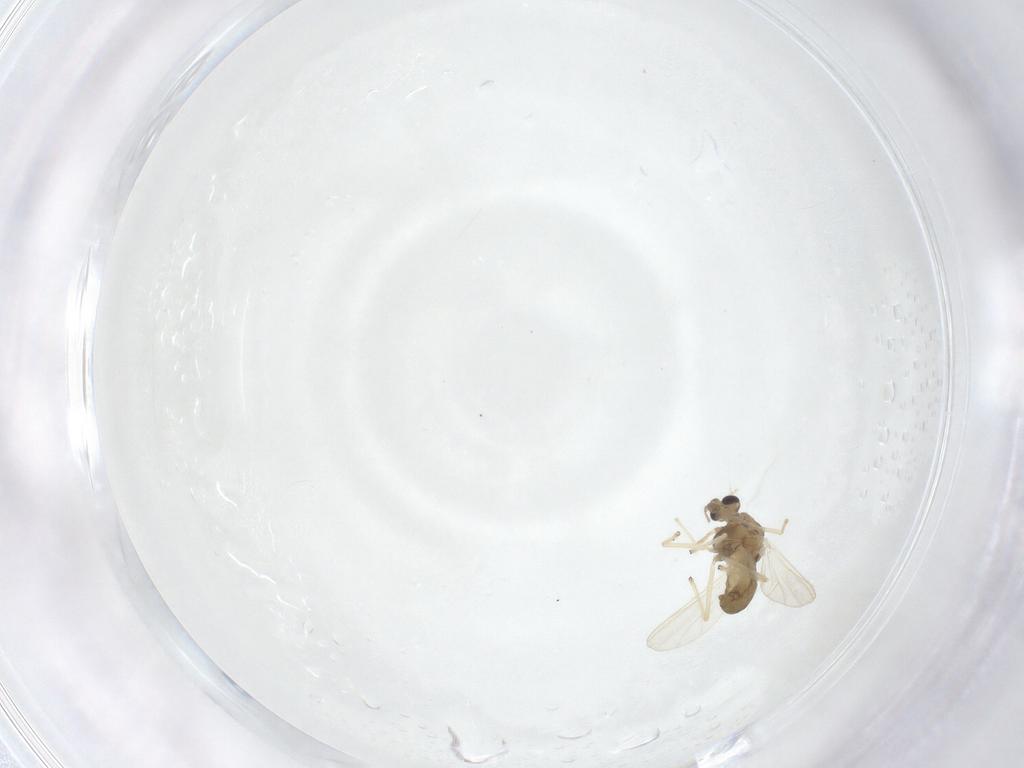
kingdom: Animalia
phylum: Arthropoda
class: Insecta
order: Diptera
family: Chironomidae
